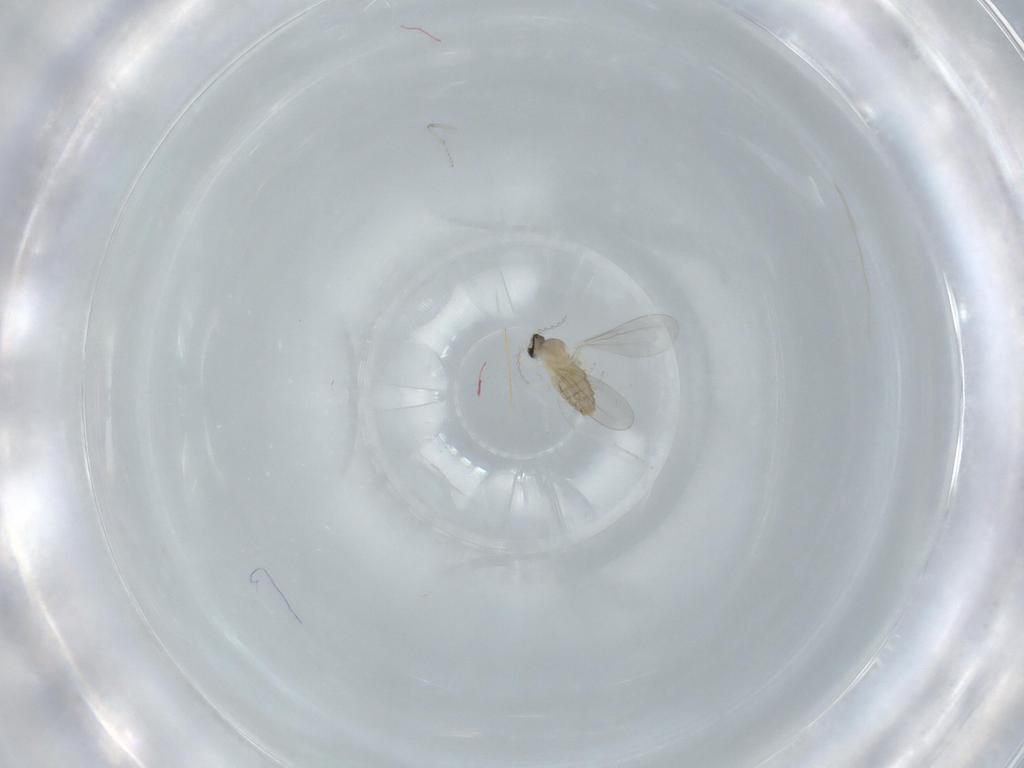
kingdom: Animalia
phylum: Arthropoda
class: Insecta
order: Diptera
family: Cecidomyiidae
